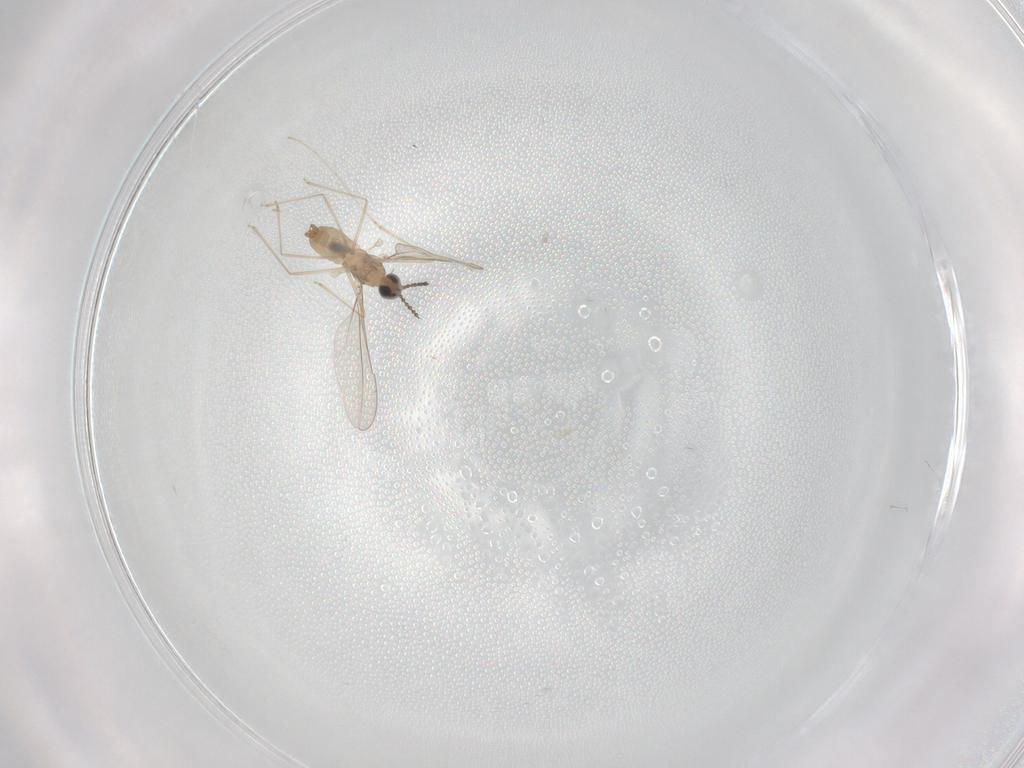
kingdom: Animalia
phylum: Arthropoda
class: Insecta
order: Diptera
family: Cecidomyiidae
